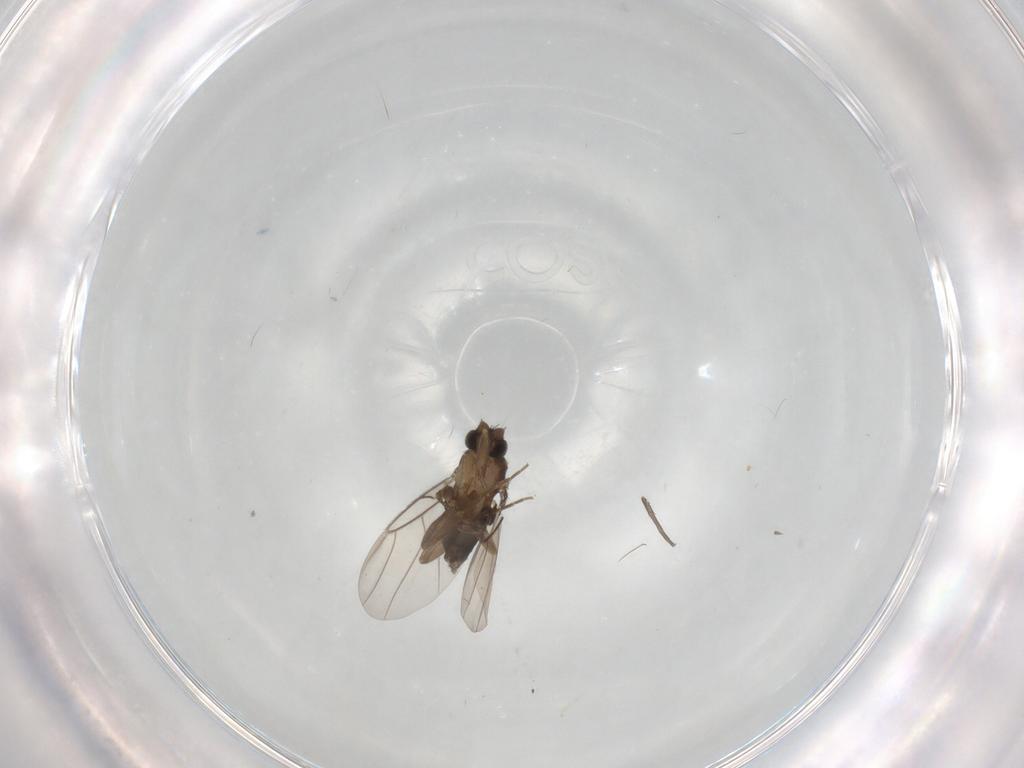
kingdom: Animalia
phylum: Arthropoda
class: Insecta
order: Diptera
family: Phoridae
